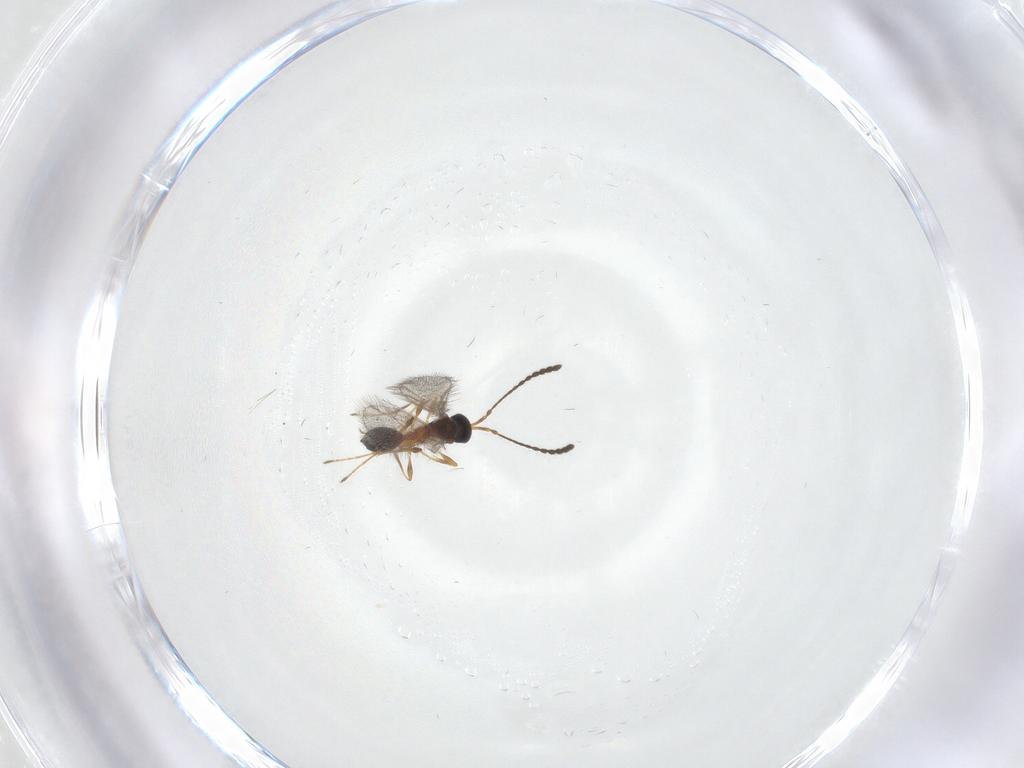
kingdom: Animalia
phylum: Arthropoda
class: Insecta
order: Hymenoptera
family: Diapriidae
